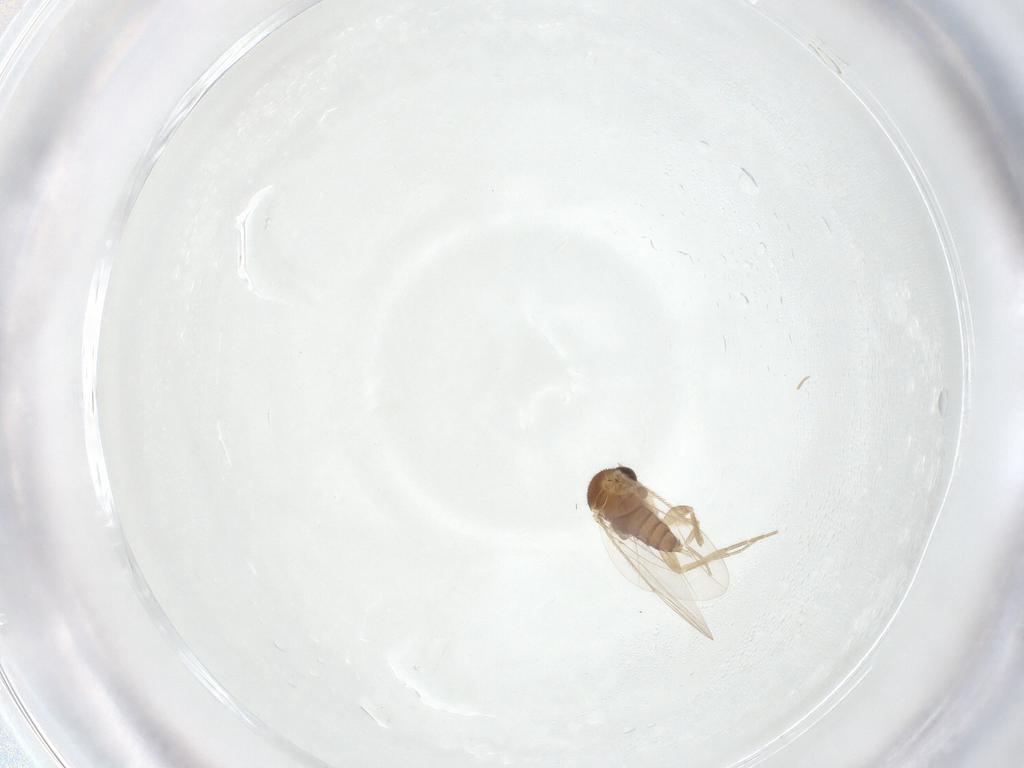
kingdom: Animalia
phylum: Arthropoda
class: Insecta
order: Diptera
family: Phoridae
